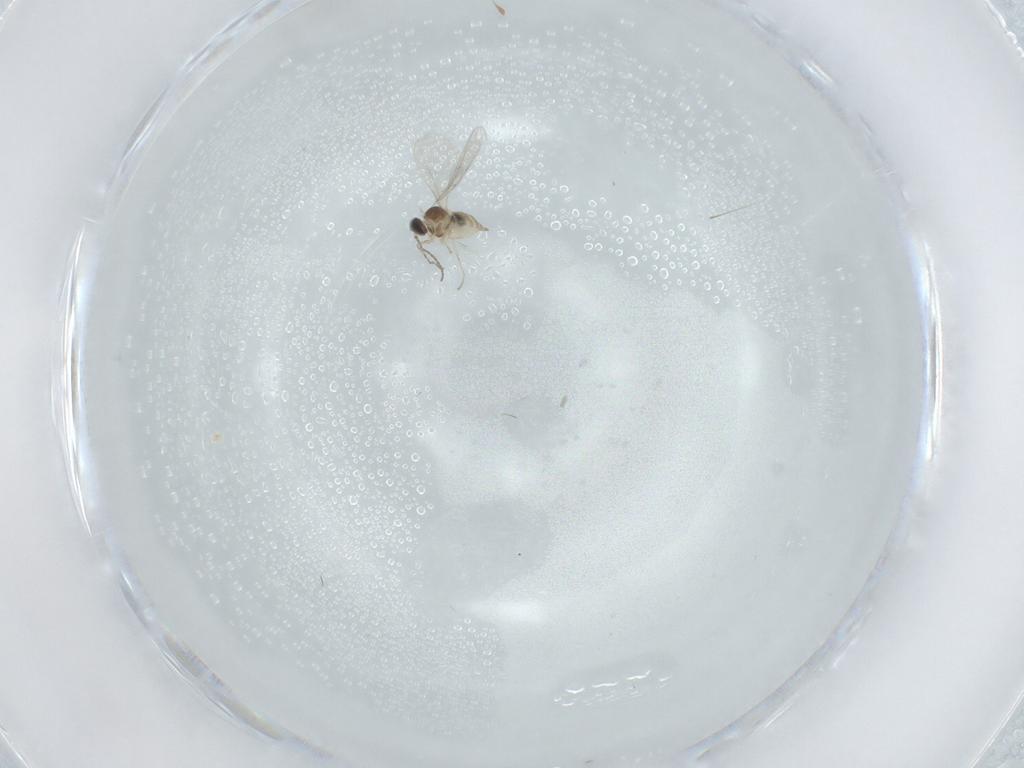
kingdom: Animalia
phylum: Arthropoda
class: Insecta
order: Diptera
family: Cecidomyiidae
